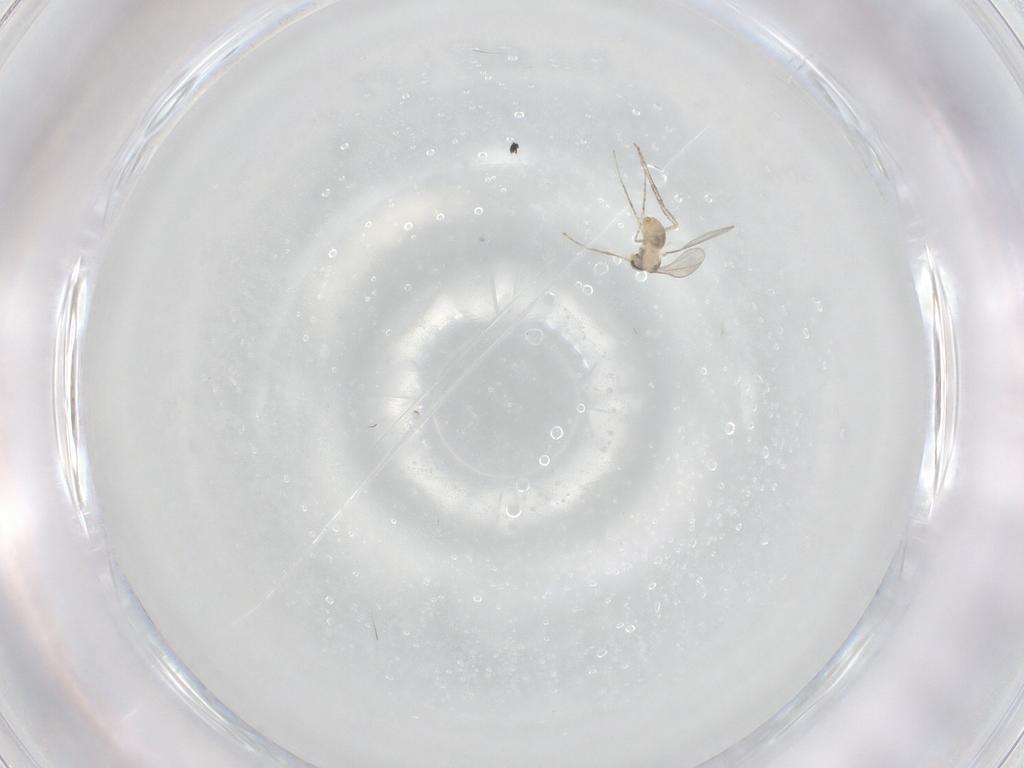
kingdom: Animalia
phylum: Arthropoda
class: Insecta
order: Diptera
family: Cecidomyiidae
